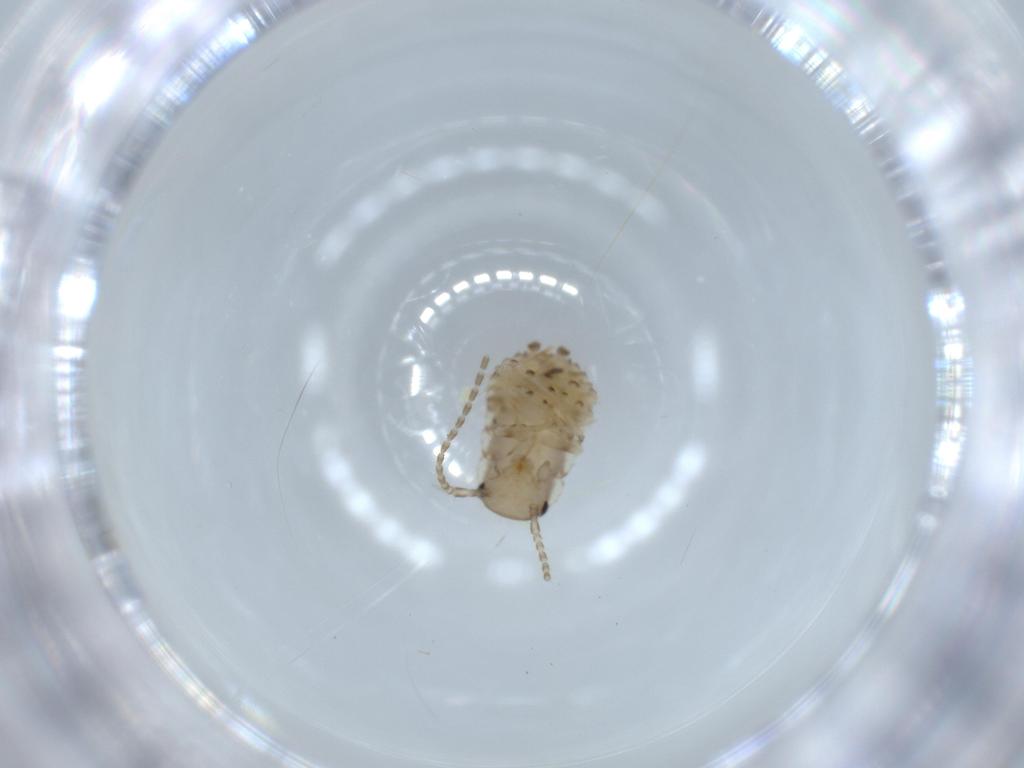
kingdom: Animalia
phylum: Arthropoda
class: Insecta
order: Blattodea
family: Ectobiidae
